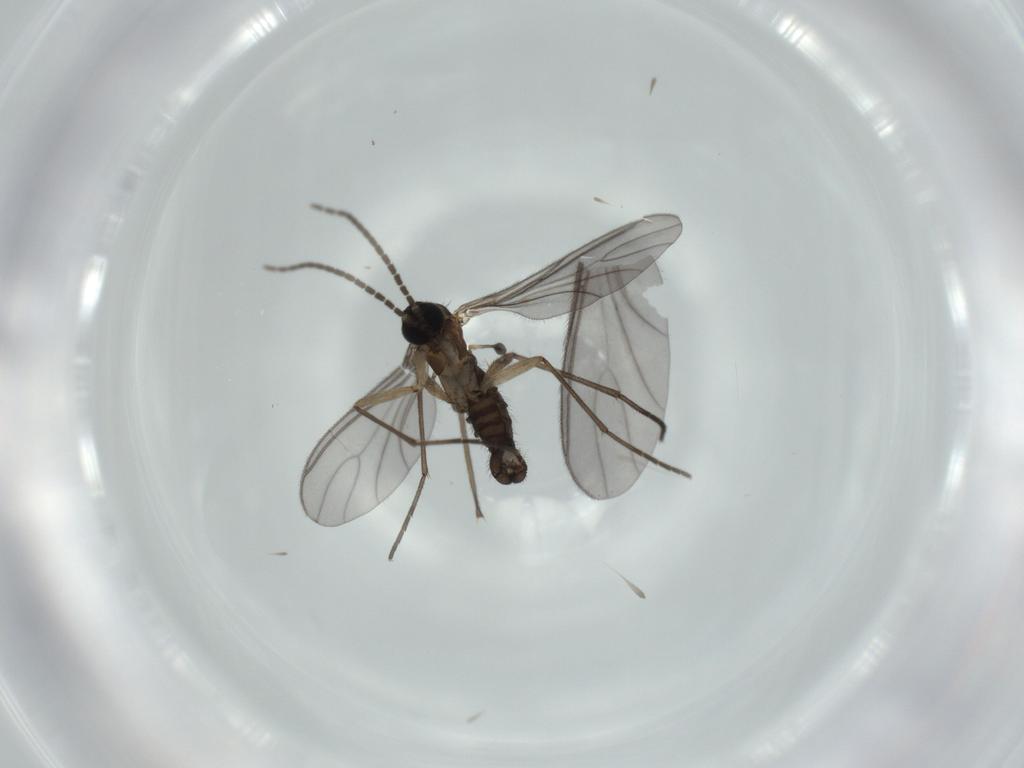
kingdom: Animalia
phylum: Arthropoda
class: Insecta
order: Diptera
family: Sciaridae
